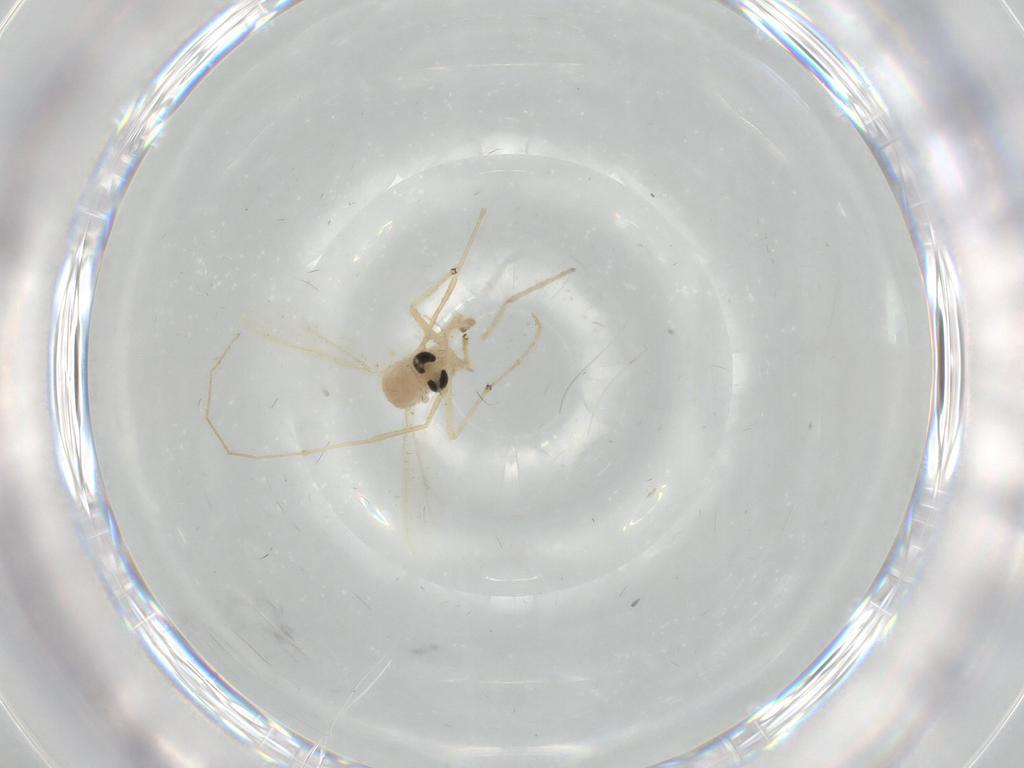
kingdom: Animalia
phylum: Arthropoda
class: Insecta
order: Diptera
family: Chironomidae
